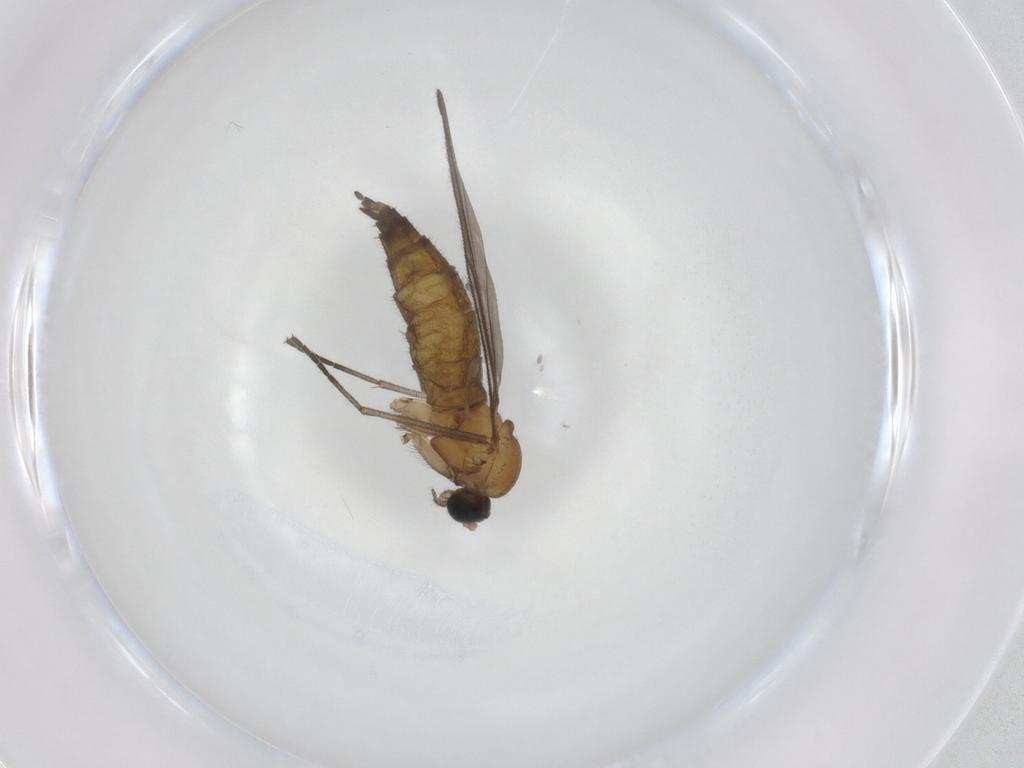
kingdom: Animalia
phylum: Arthropoda
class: Insecta
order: Diptera
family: Sciaridae
